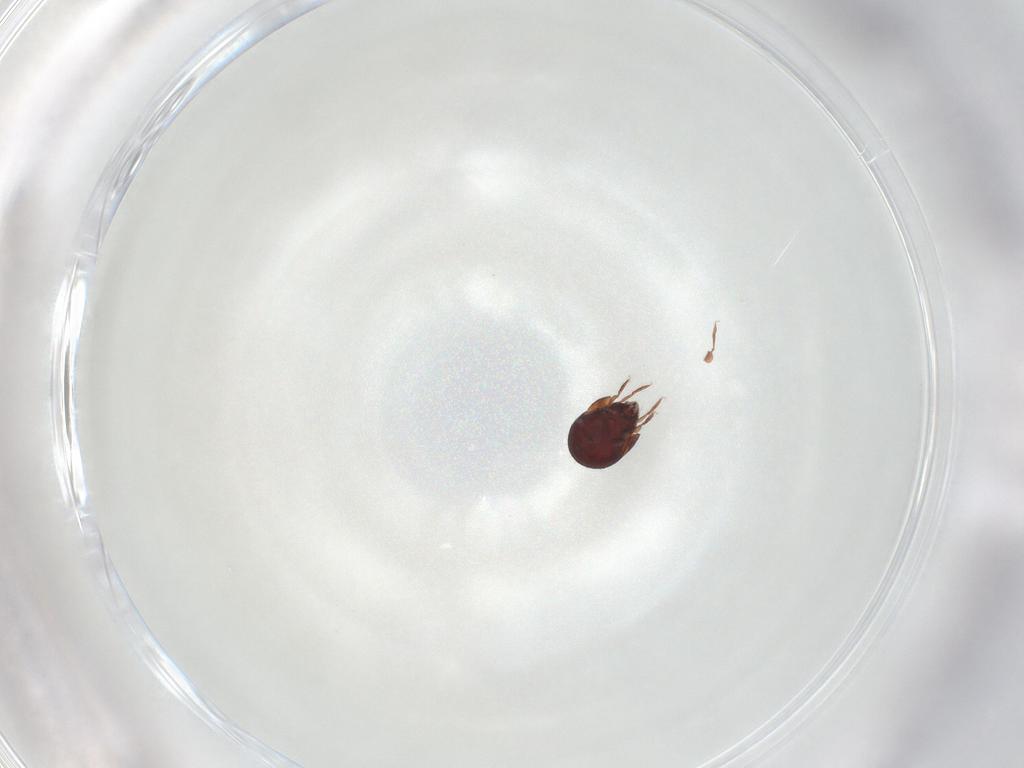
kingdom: Animalia
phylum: Arthropoda
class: Arachnida
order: Sarcoptiformes
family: Humerobatidae
